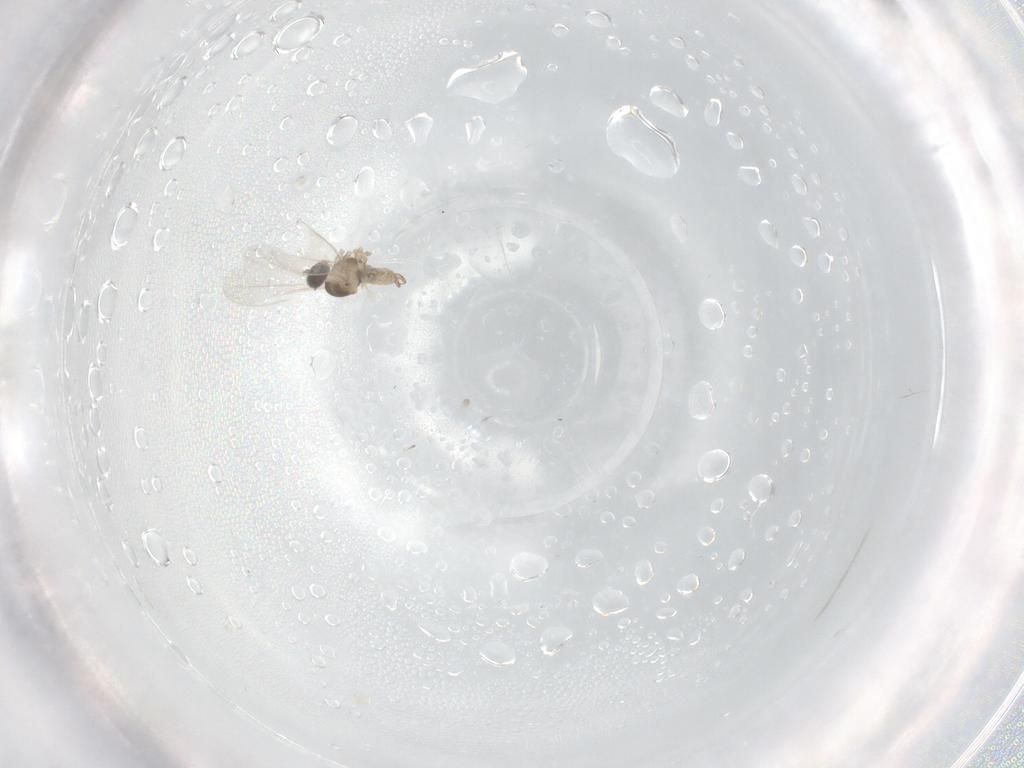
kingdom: Animalia
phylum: Arthropoda
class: Insecta
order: Diptera
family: Cecidomyiidae
